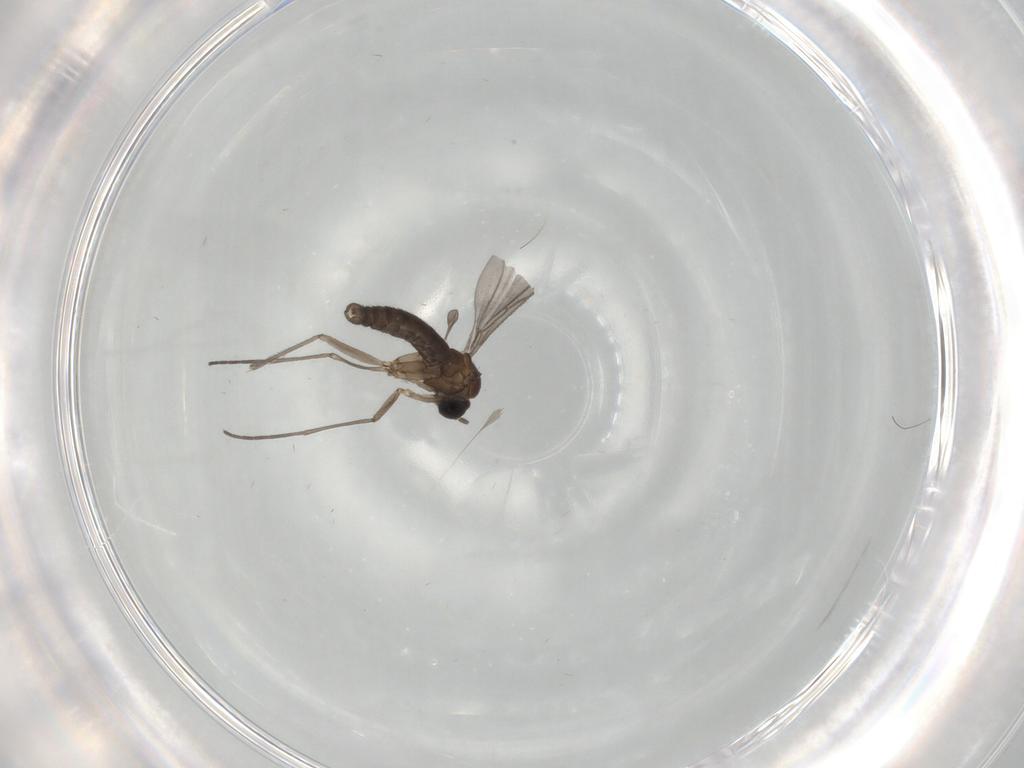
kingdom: Animalia
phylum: Arthropoda
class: Insecta
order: Diptera
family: Sciaridae
